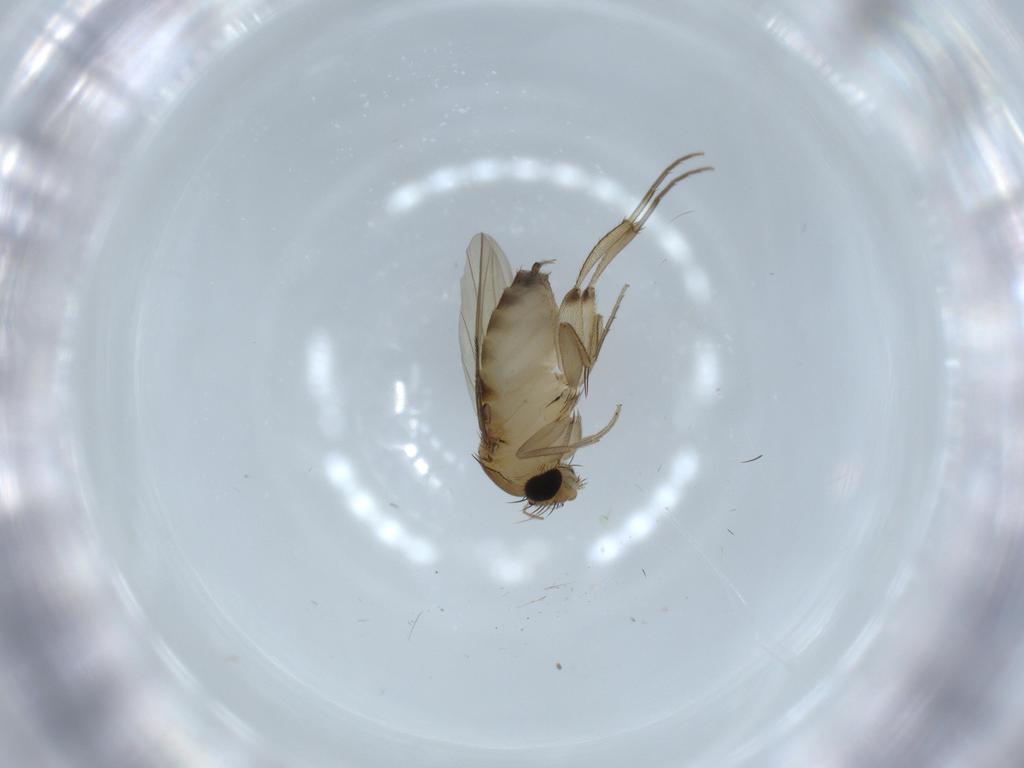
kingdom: Animalia
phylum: Arthropoda
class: Insecta
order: Diptera
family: Phoridae
